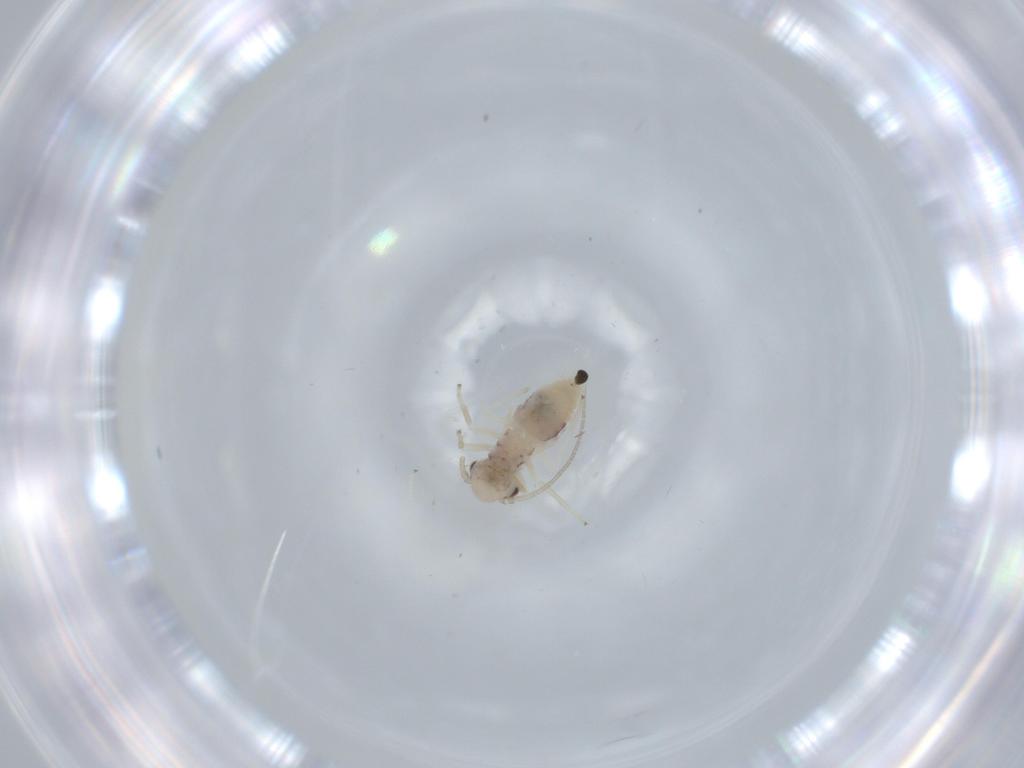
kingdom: Animalia
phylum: Arthropoda
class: Insecta
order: Psocodea
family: Caeciliusidae
